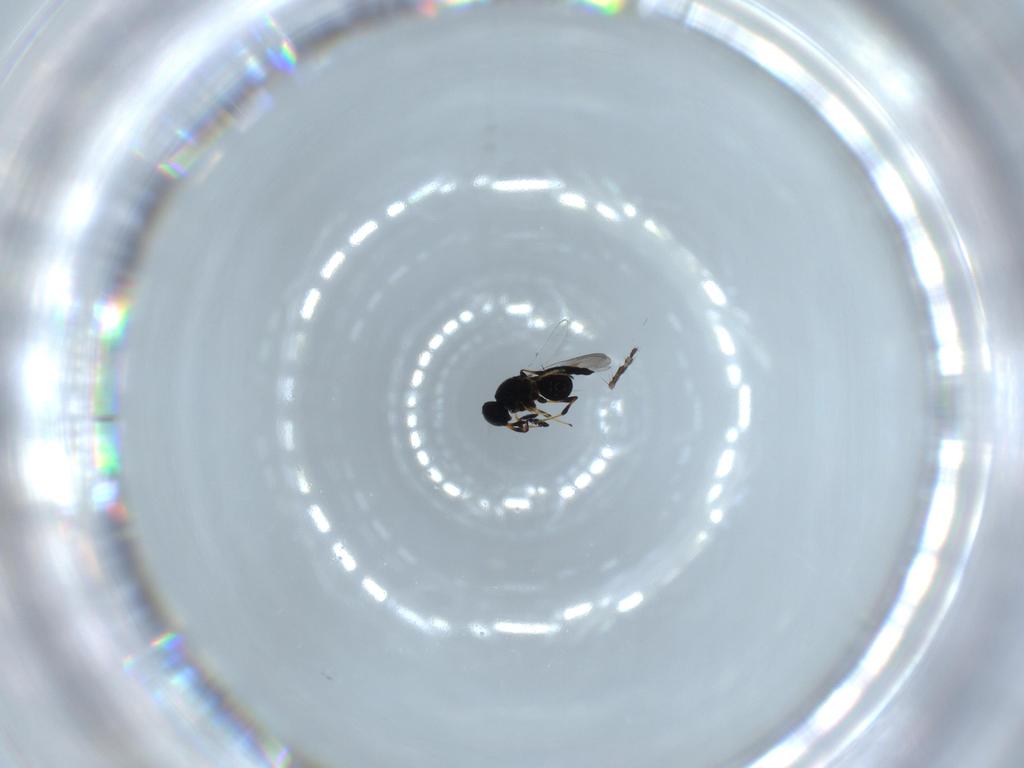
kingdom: Animalia
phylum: Arthropoda
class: Insecta
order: Hymenoptera
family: Platygastridae
